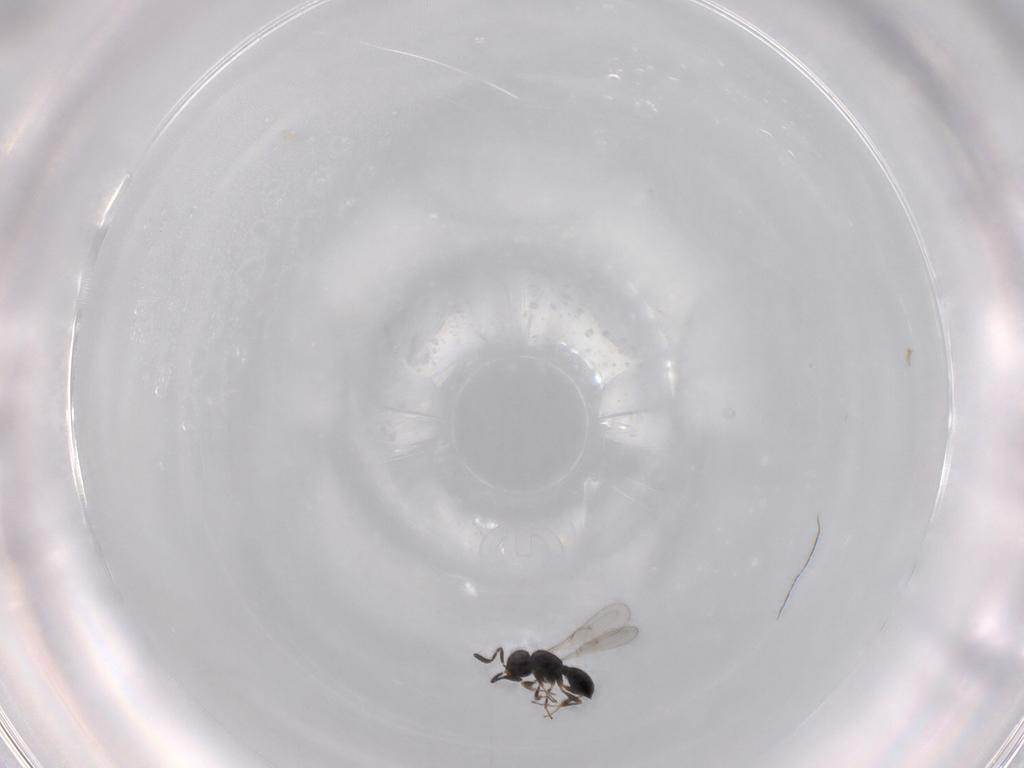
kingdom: Animalia
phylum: Arthropoda
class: Insecta
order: Hymenoptera
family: Scelionidae
